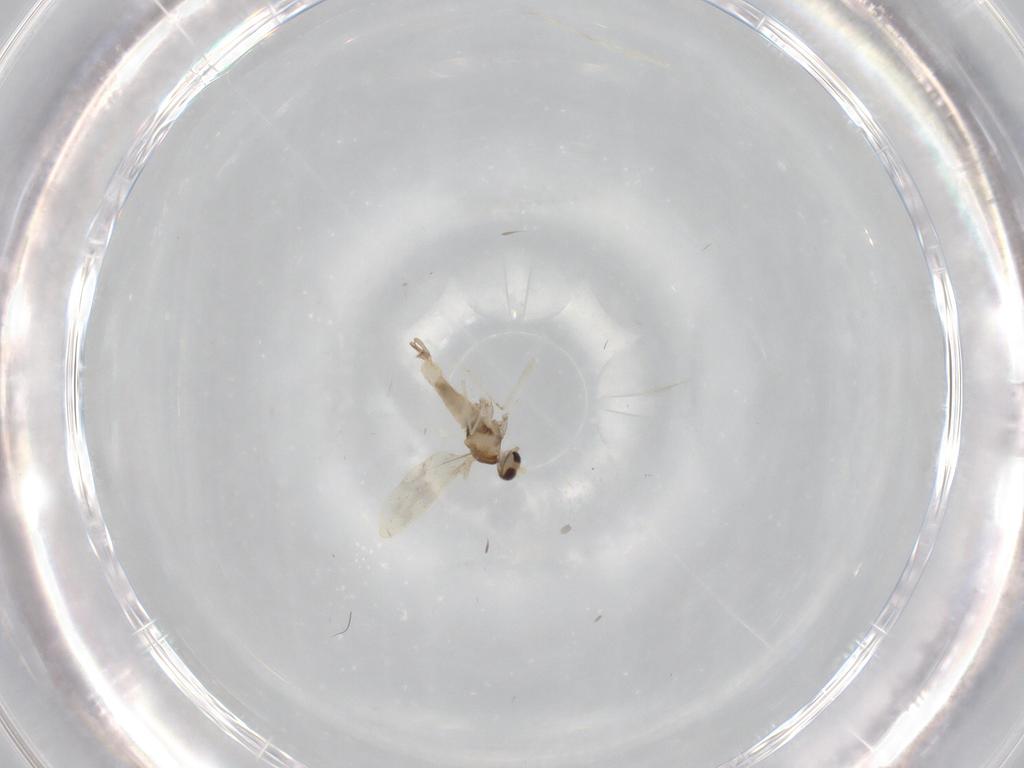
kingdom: Animalia
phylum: Arthropoda
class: Insecta
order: Diptera
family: Cecidomyiidae
